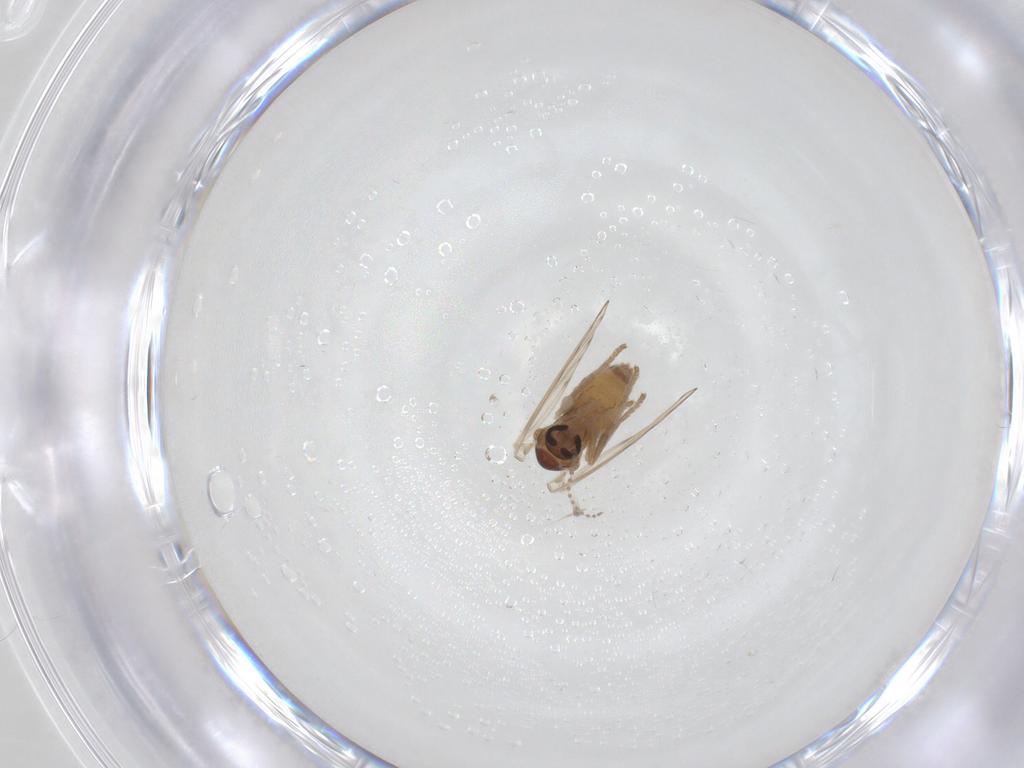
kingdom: Animalia
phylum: Arthropoda
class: Insecta
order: Diptera
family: Psychodidae
